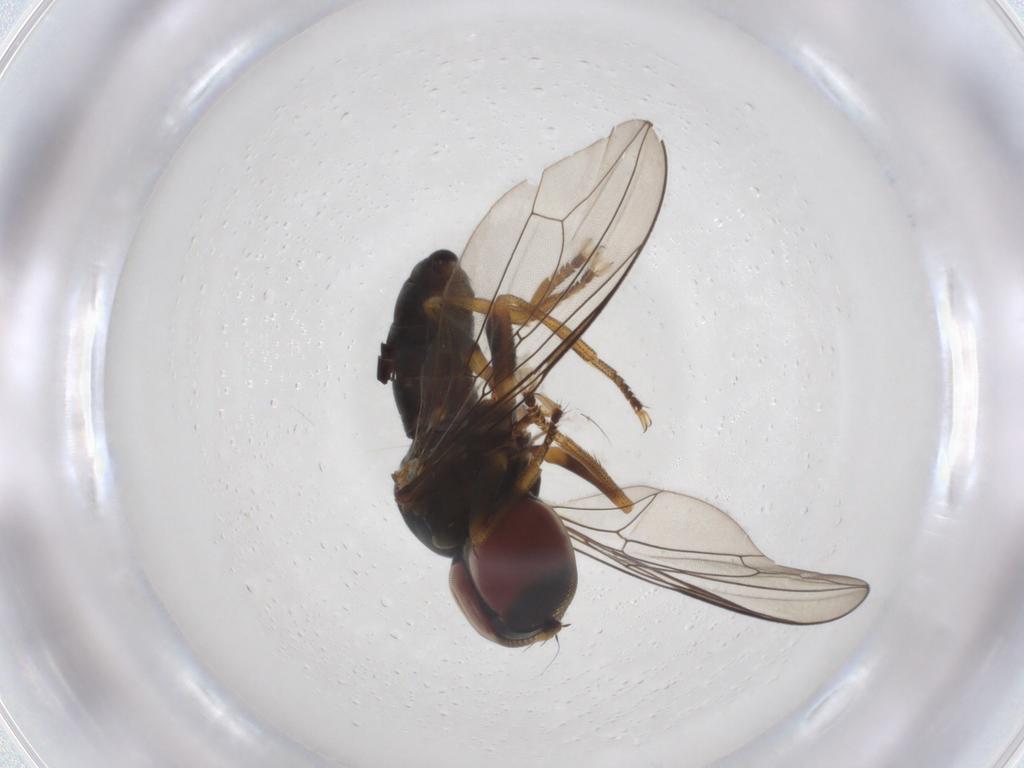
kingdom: Animalia
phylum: Arthropoda
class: Insecta
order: Diptera
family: Pipunculidae
